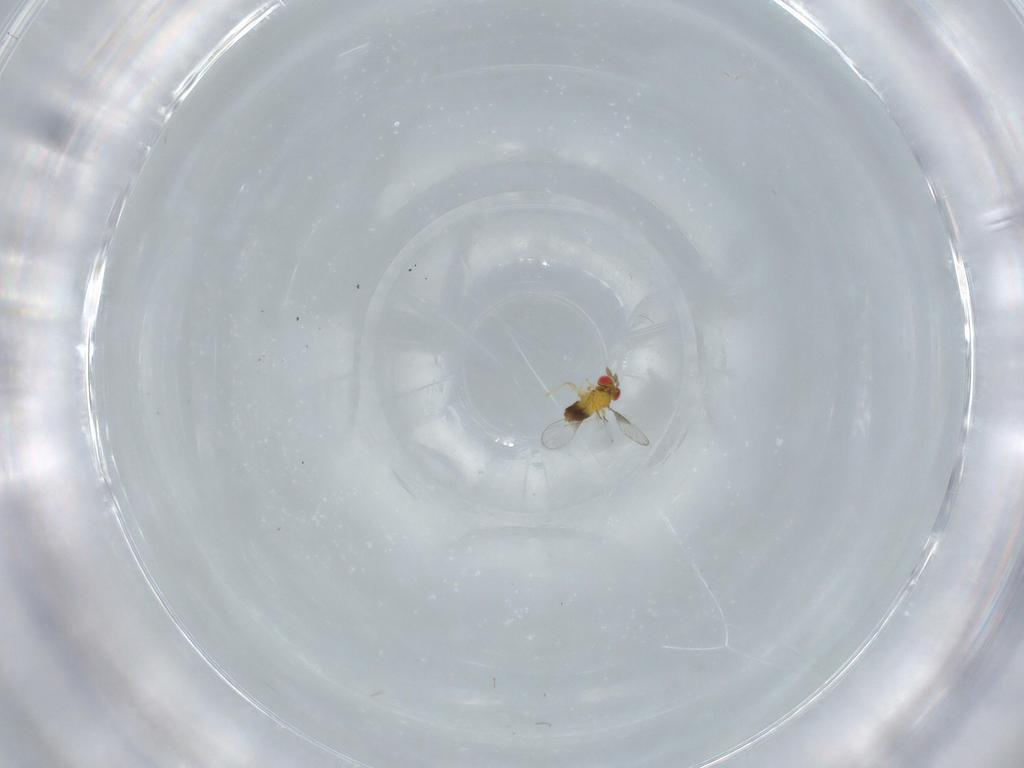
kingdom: Animalia
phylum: Arthropoda
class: Insecta
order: Hymenoptera
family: Trichogrammatidae
